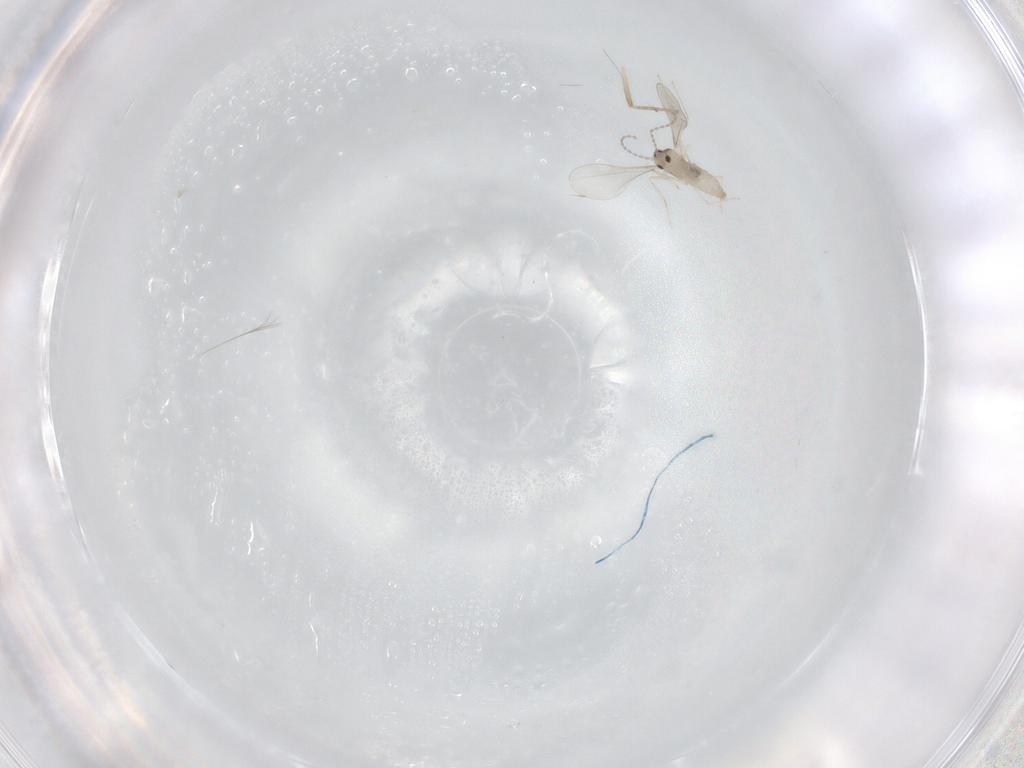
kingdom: Animalia
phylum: Arthropoda
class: Insecta
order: Diptera
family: Cecidomyiidae
